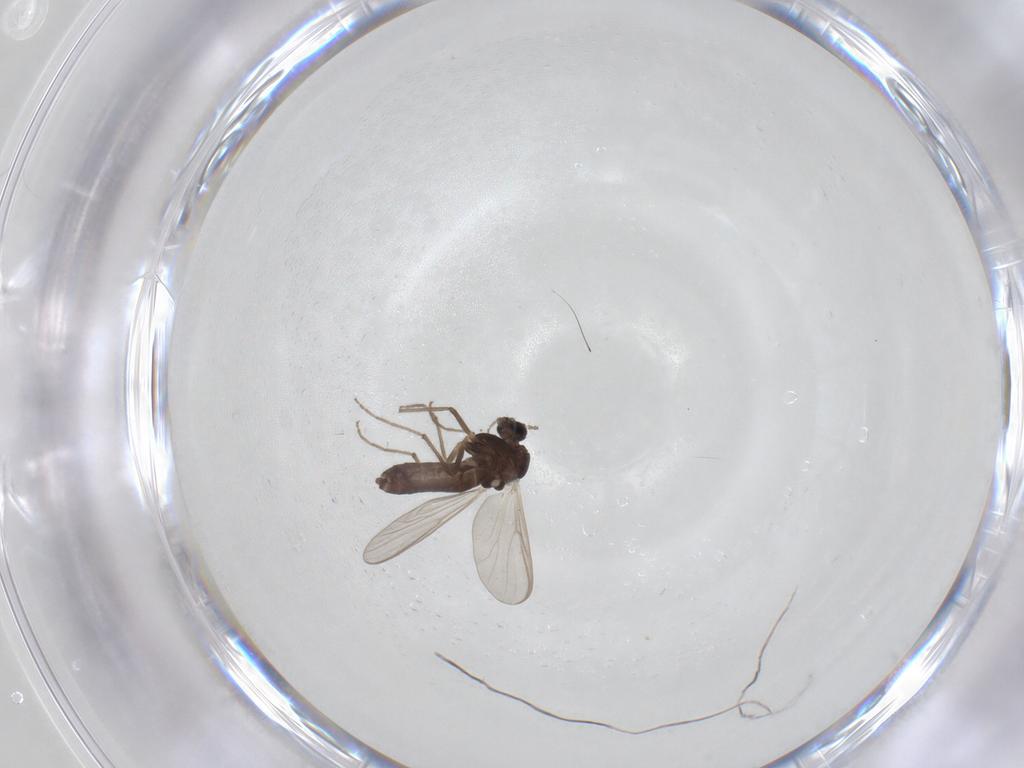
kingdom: Animalia
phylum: Arthropoda
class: Insecta
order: Diptera
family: Chironomidae
